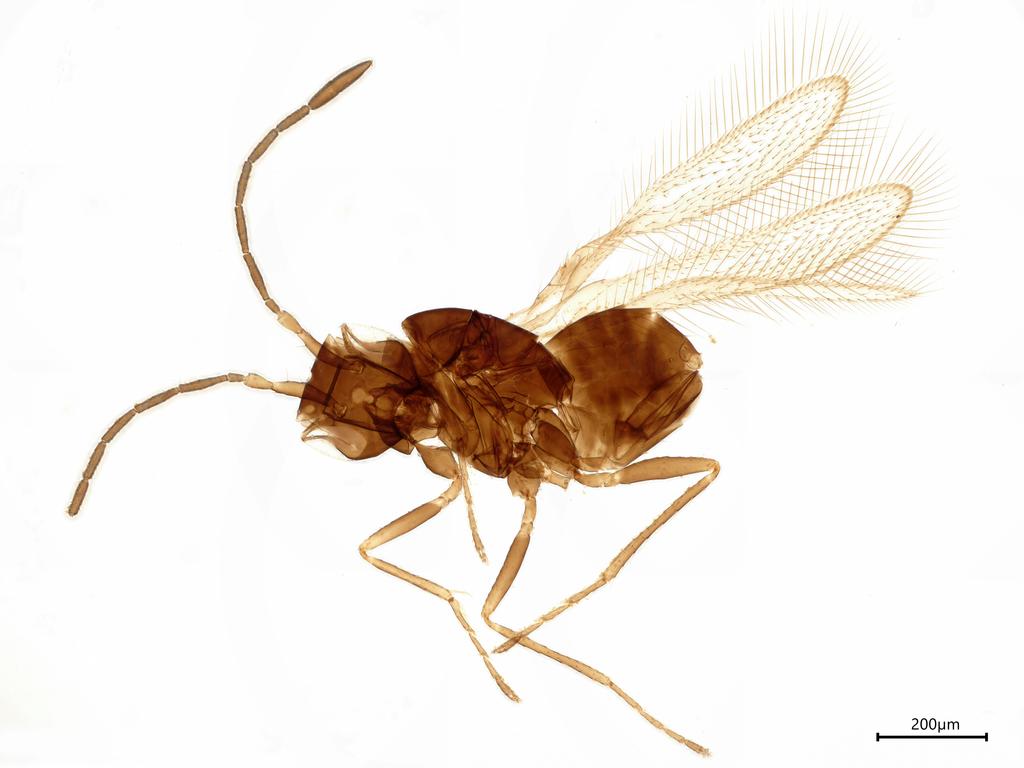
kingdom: Animalia
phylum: Arthropoda
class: Insecta
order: Hymenoptera
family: Mymaridae
